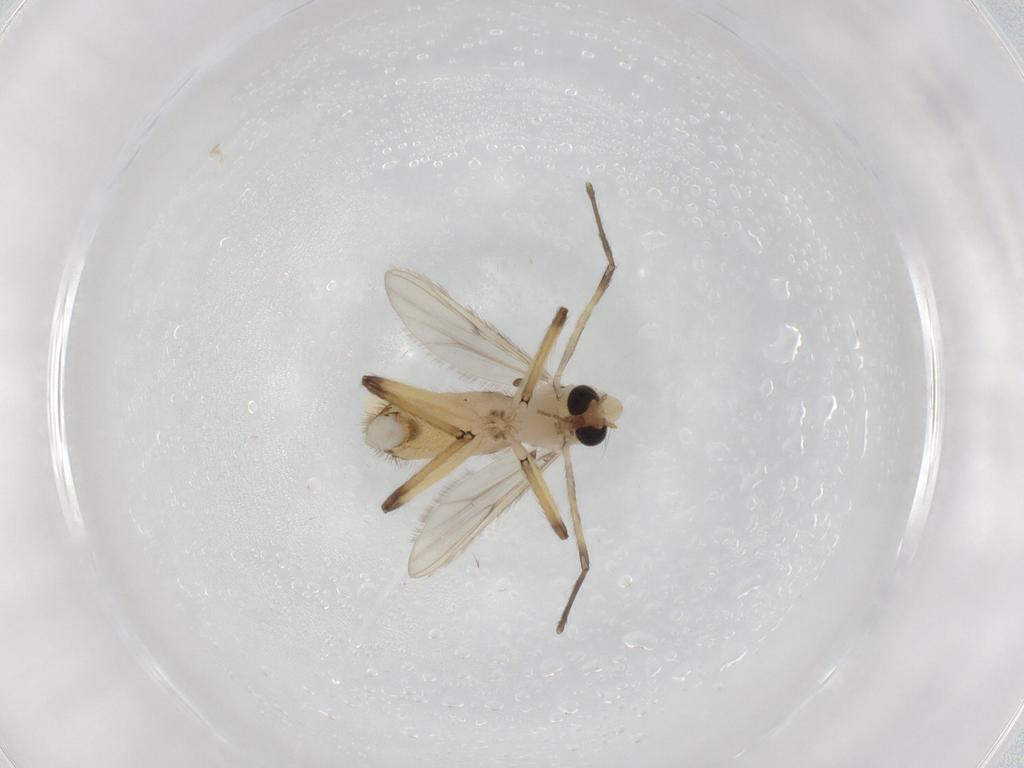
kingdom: Animalia
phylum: Arthropoda
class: Insecta
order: Diptera
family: Chironomidae
